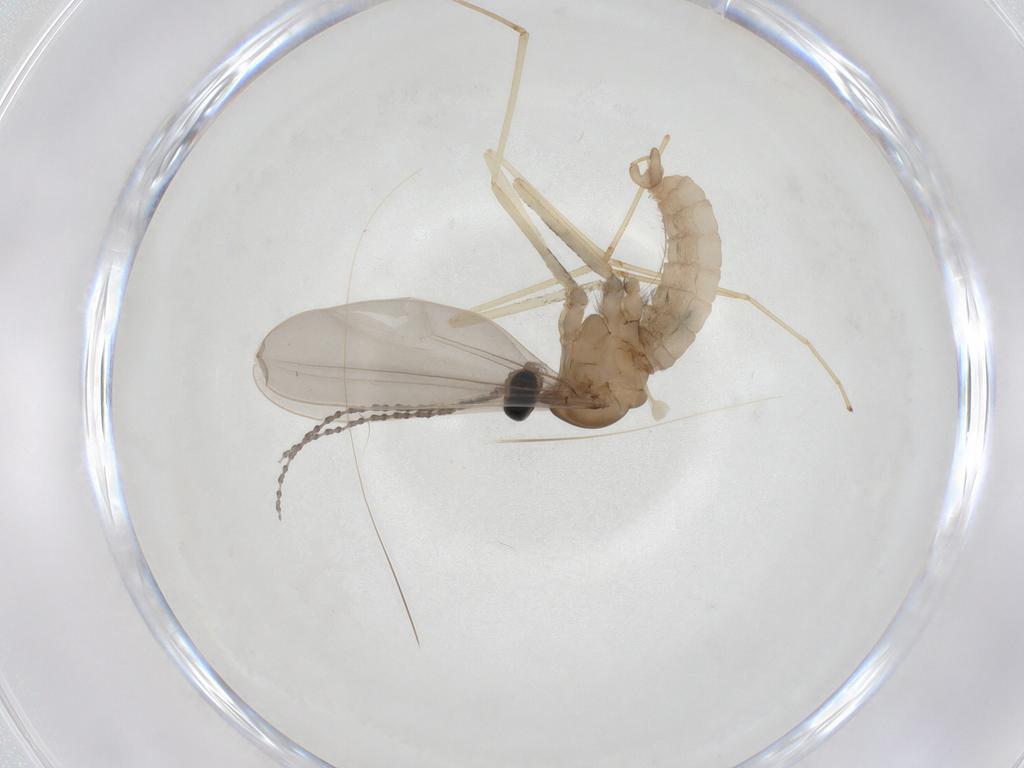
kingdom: Animalia
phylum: Arthropoda
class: Insecta
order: Diptera
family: Cecidomyiidae
